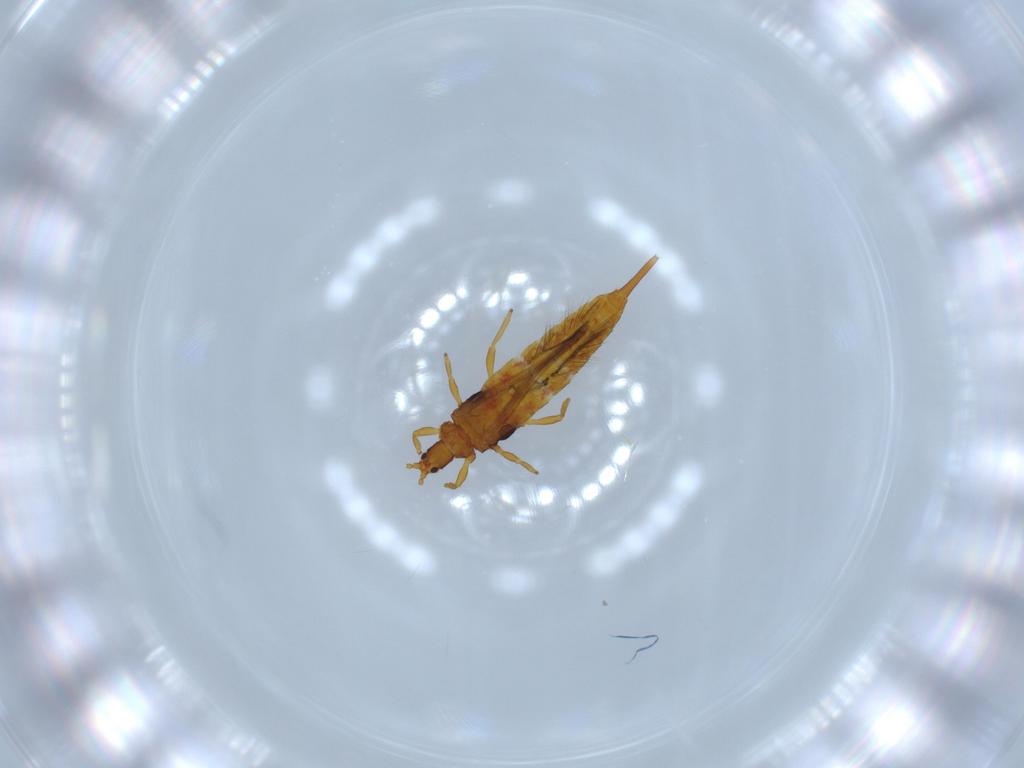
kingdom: Animalia
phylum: Arthropoda
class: Insecta
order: Thysanoptera
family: Phlaeothripidae
